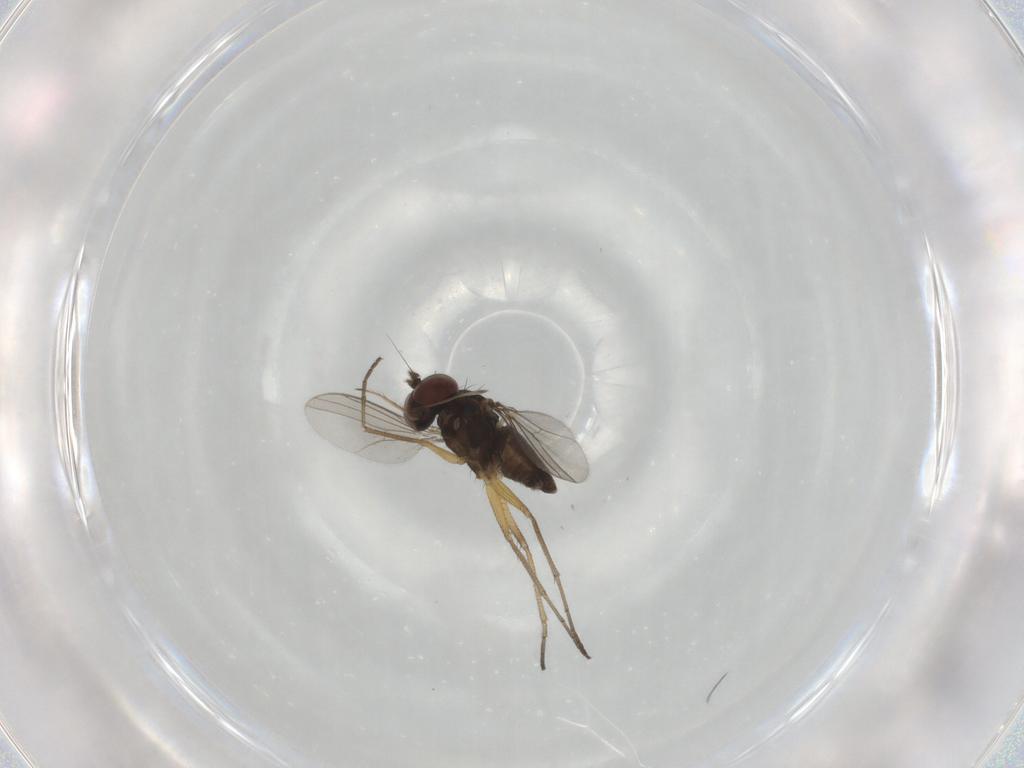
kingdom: Animalia
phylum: Arthropoda
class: Insecta
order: Diptera
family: Dolichopodidae
